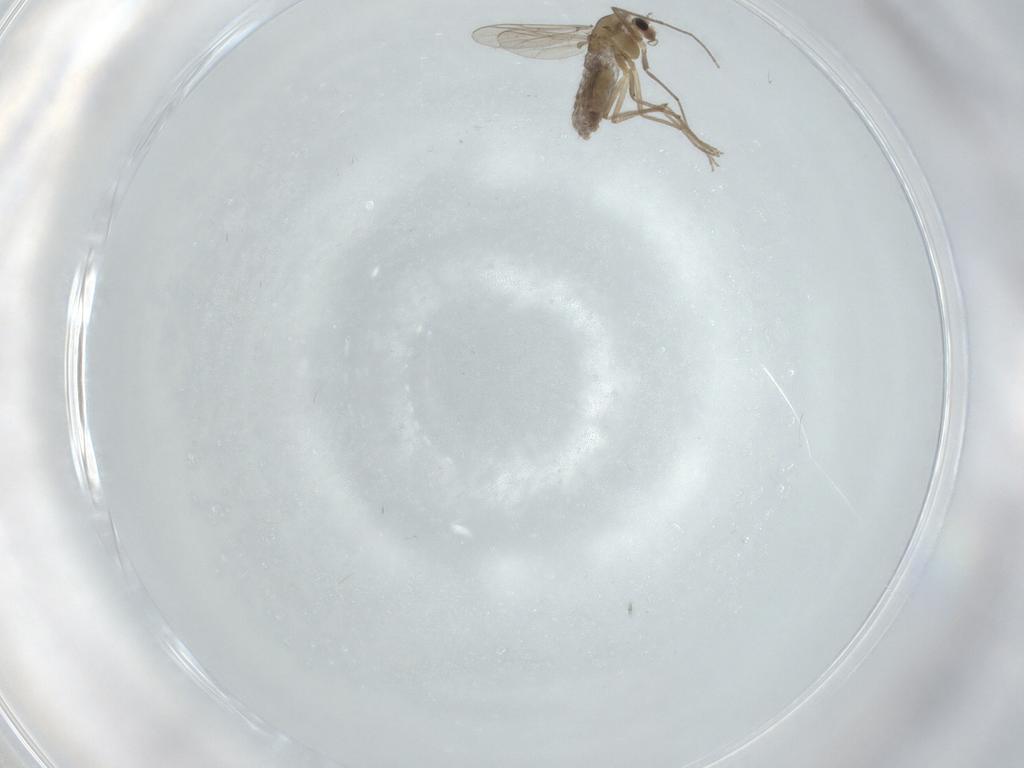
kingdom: Animalia
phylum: Arthropoda
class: Insecta
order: Diptera
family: Chironomidae
